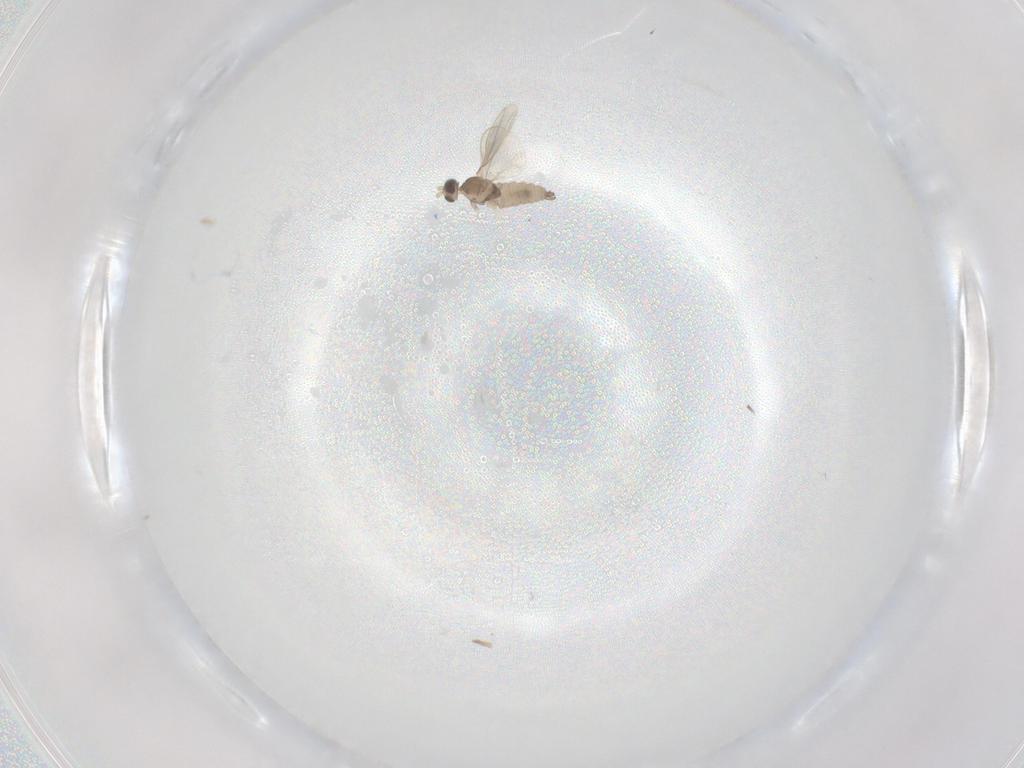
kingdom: Animalia
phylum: Arthropoda
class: Insecta
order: Diptera
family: Cecidomyiidae
